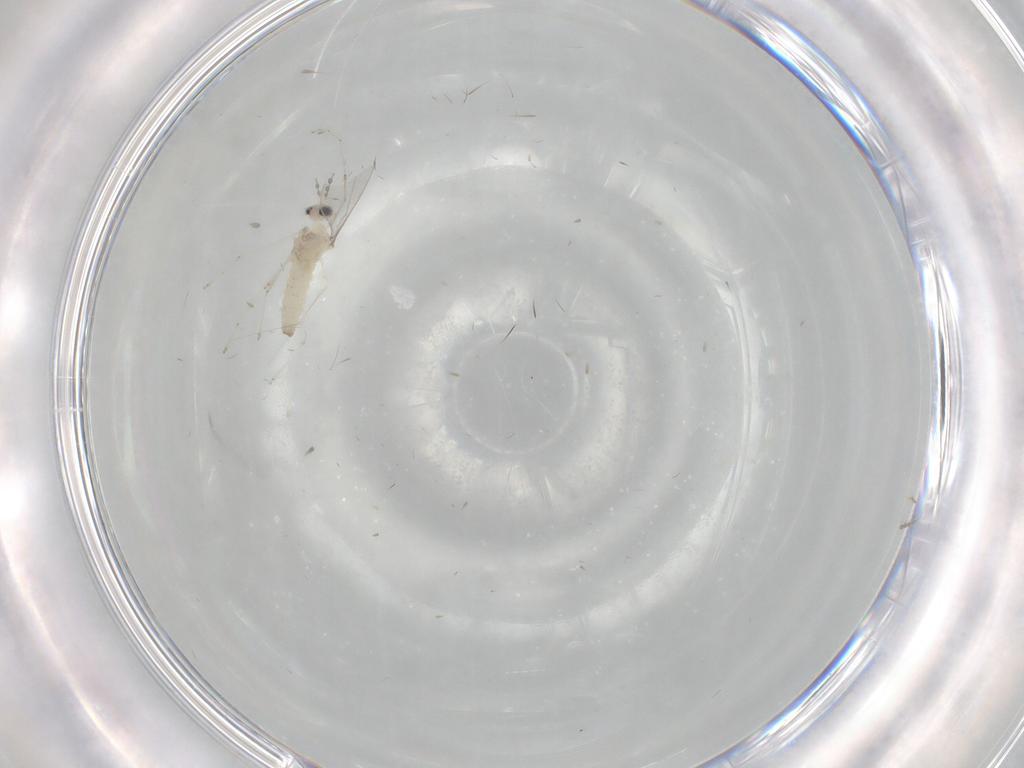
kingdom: Animalia
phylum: Arthropoda
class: Insecta
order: Diptera
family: Cecidomyiidae
